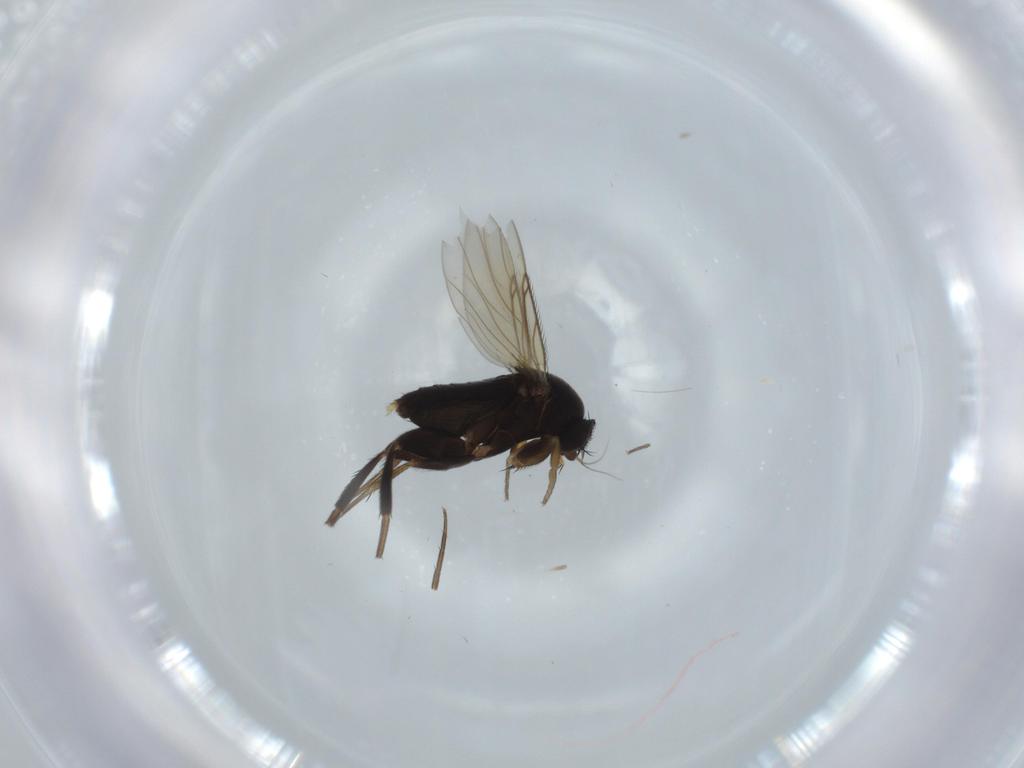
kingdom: Animalia
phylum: Arthropoda
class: Insecta
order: Diptera
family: Phoridae
